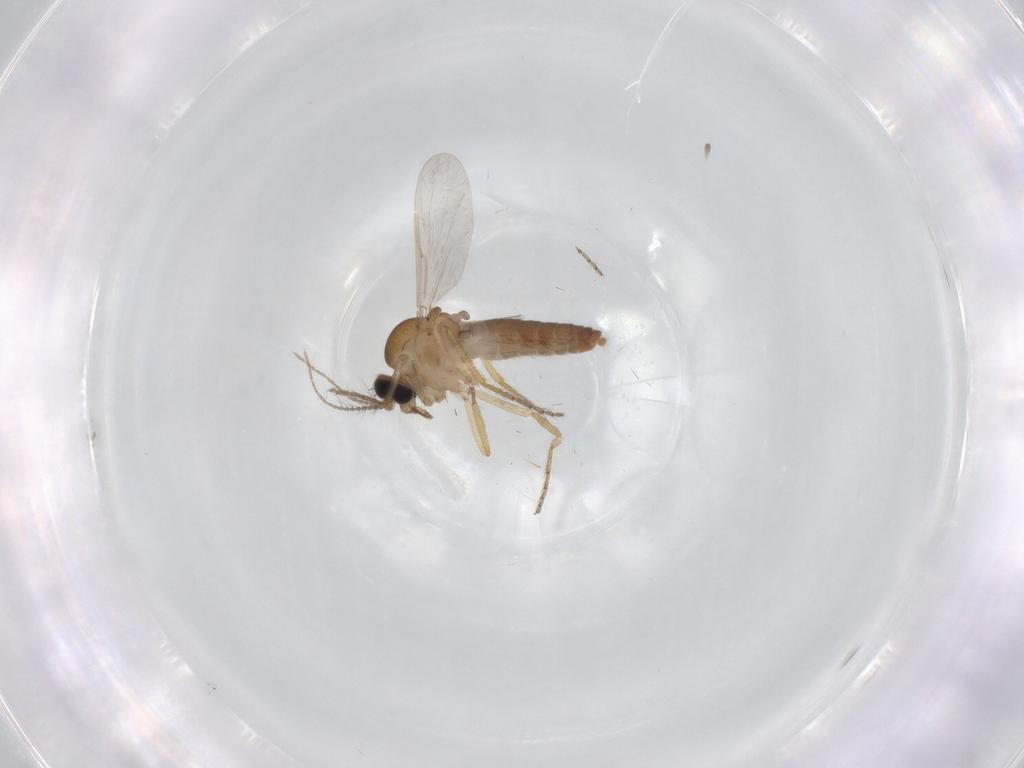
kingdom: Animalia
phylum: Arthropoda
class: Insecta
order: Diptera
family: Ceratopogonidae
